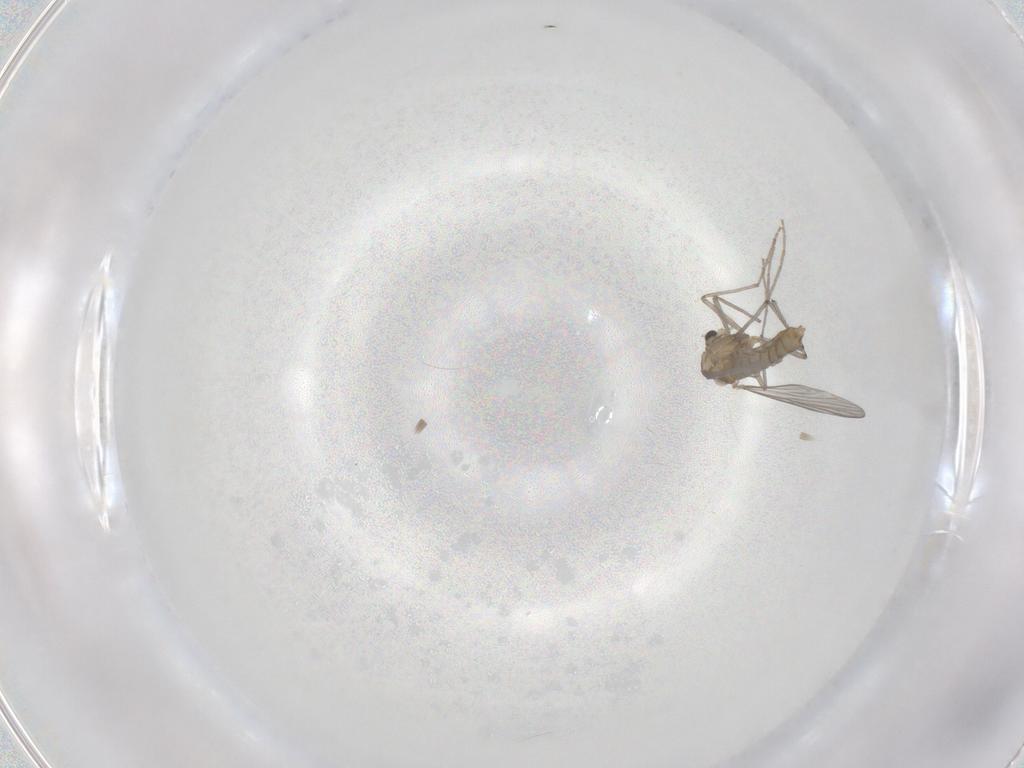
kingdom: Animalia
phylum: Arthropoda
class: Insecta
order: Diptera
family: Chironomidae
